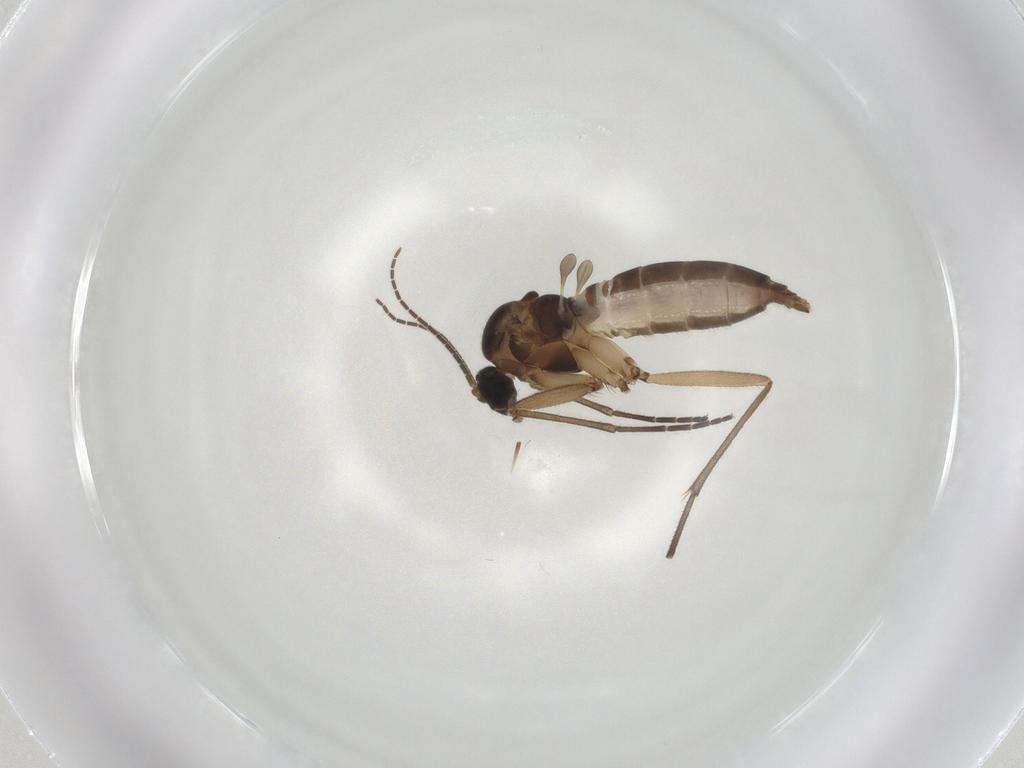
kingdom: Animalia
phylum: Arthropoda
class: Insecta
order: Diptera
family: Sciaridae
